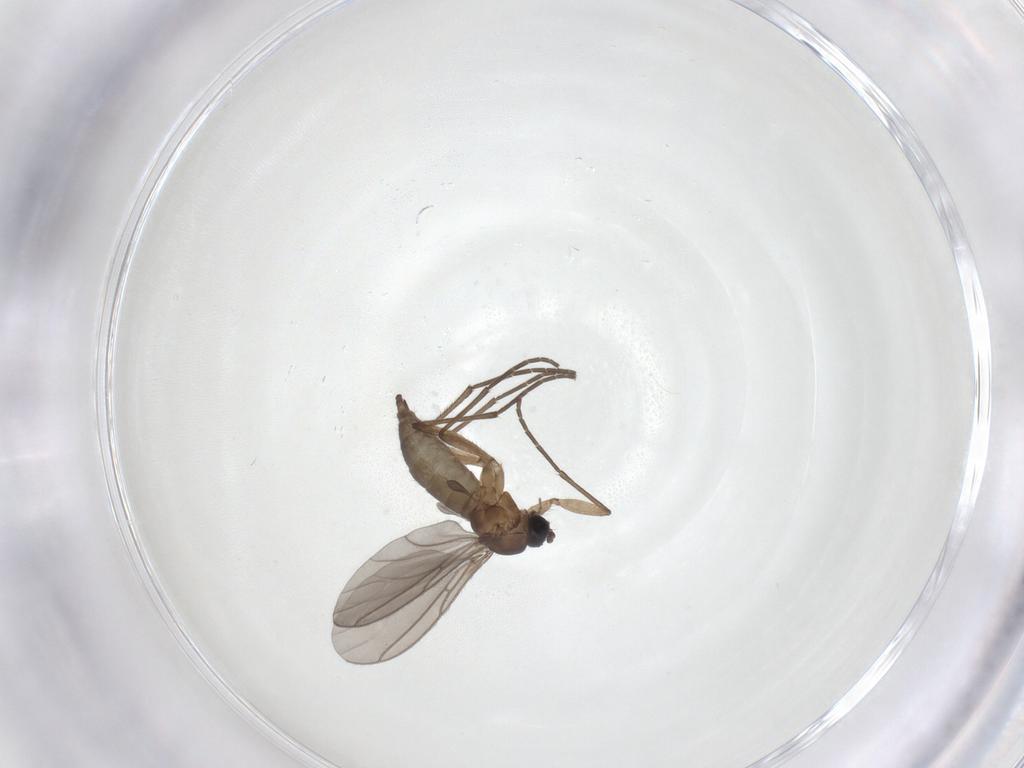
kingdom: Animalia
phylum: Arthropoda
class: Insecta
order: Diptera
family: Sciaridae
